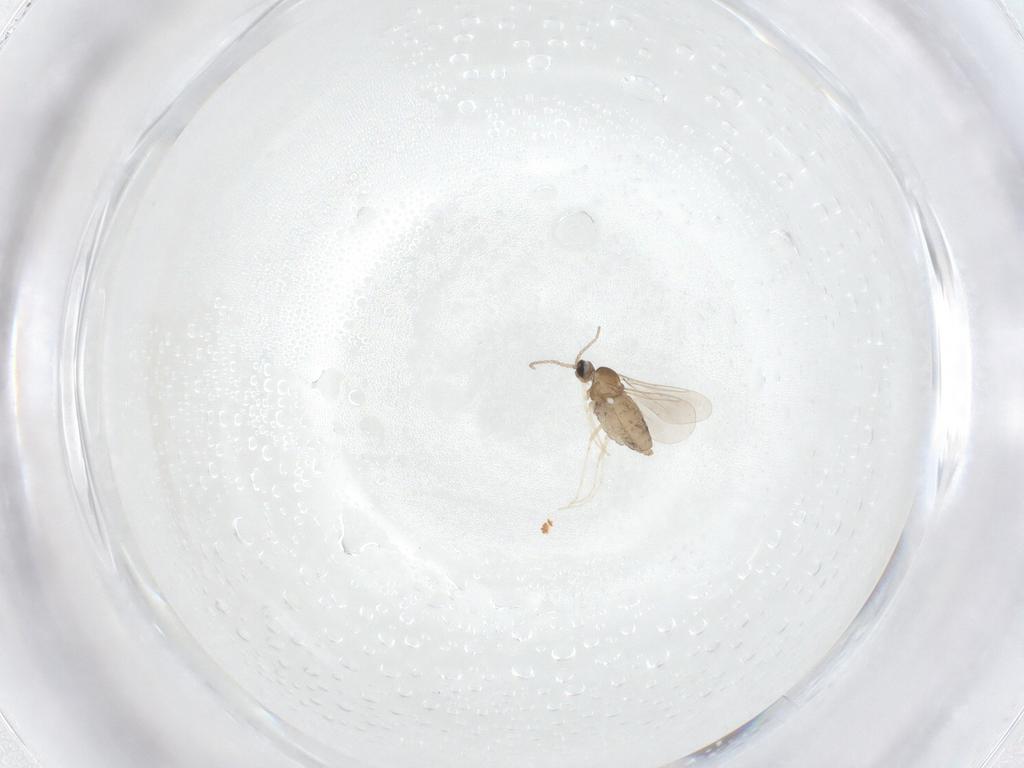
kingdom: Animalia
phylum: Arthropoda
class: Insecta
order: Diptera
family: Cecidomyiidae
